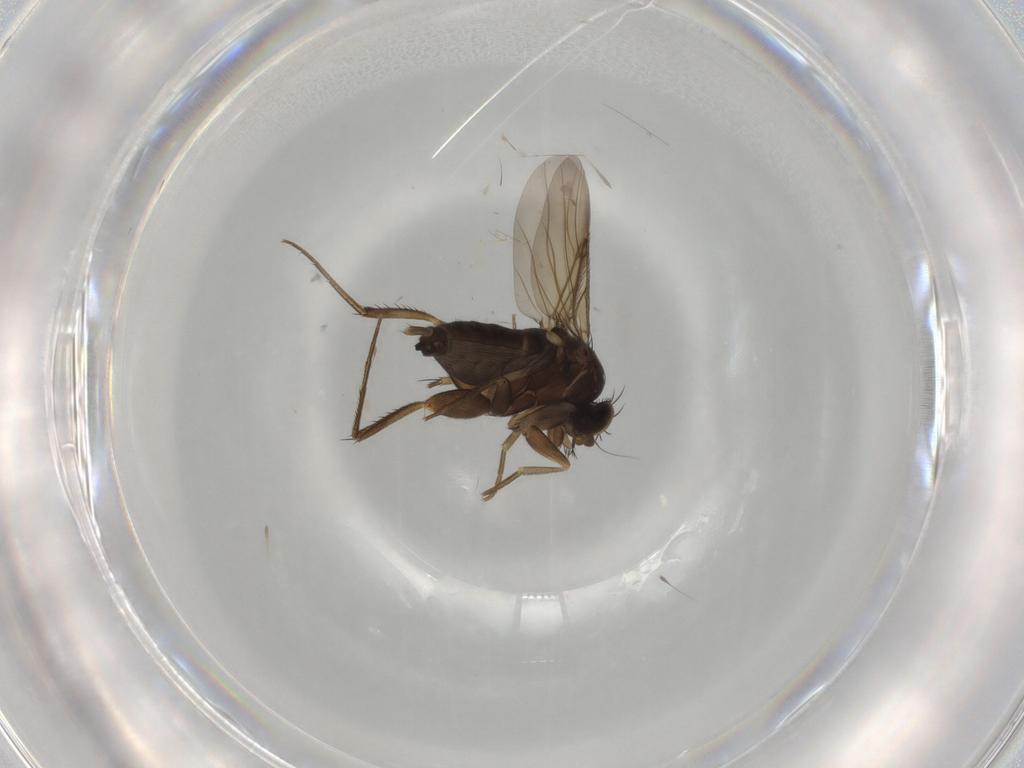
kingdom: Animalia
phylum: Arthropoda
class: Insecta
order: Diptera
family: Phoridae
